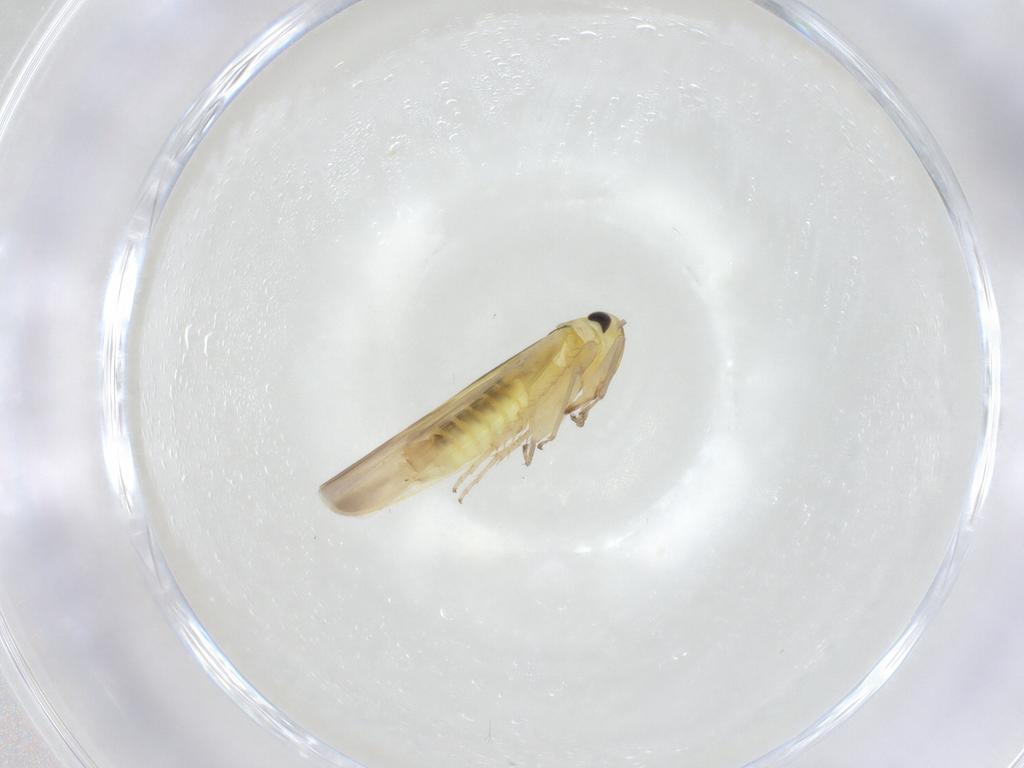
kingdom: Animalia
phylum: Arthropoda
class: Insecta
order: Hemiptera
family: Cicadellidae
